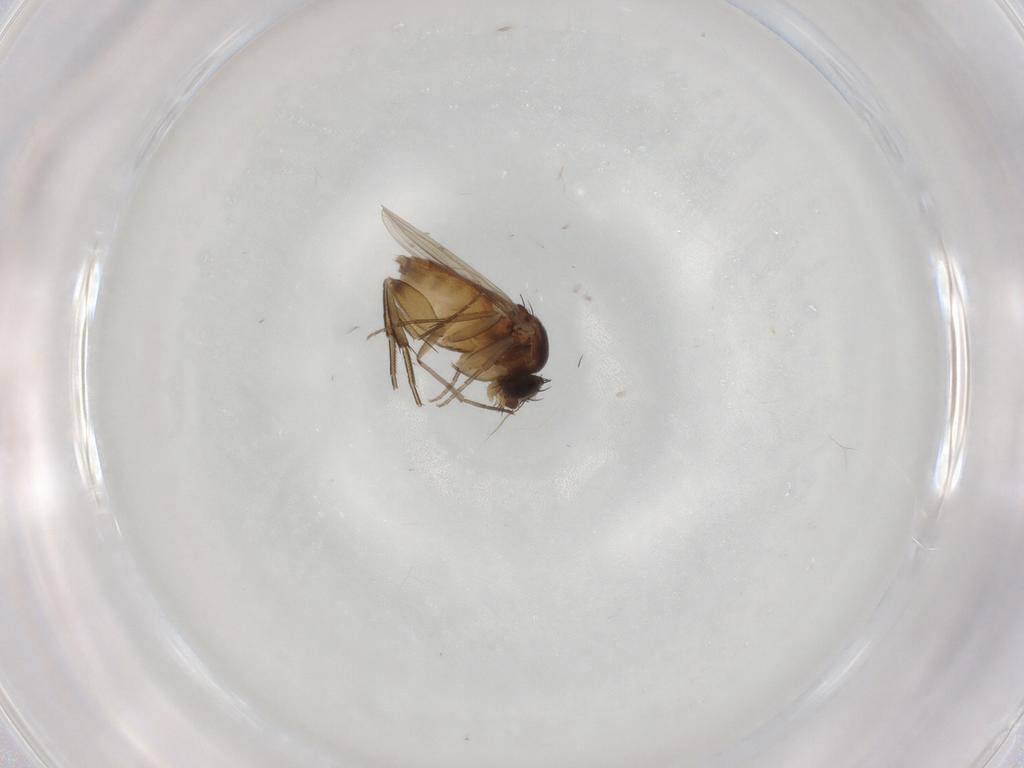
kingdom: Animalia
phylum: Arthropoda
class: Insecta
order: Diptera
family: Phoridae
